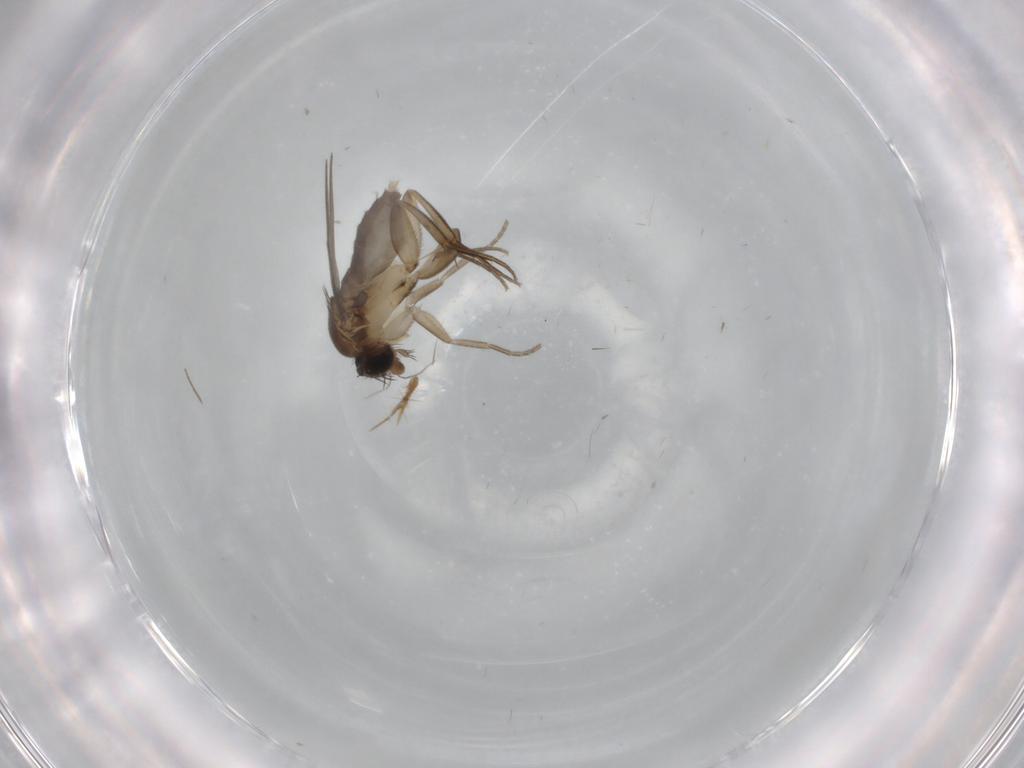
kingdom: Animalia
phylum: Arthropoda
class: Insecta
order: Diptera
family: Phoridae
